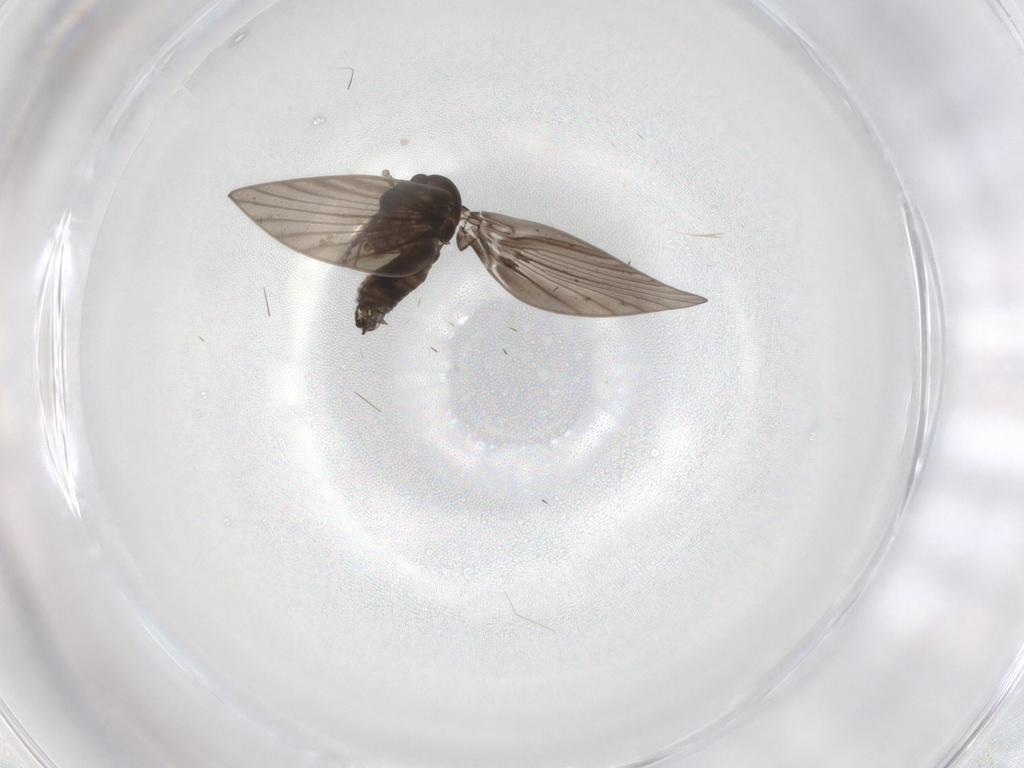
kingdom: Animalia
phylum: Arthropoda
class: Insecta
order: Diptera
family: Psychodidae
